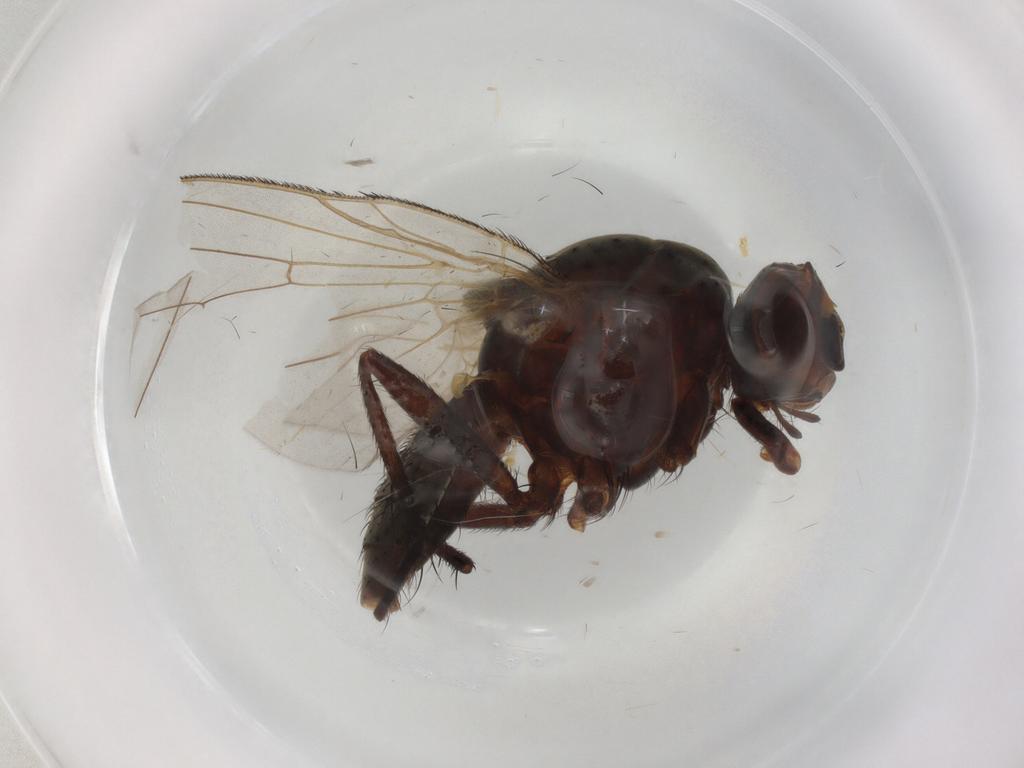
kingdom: Animalia
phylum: Arthropoda
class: Insecta
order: Diptera
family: Anthomyiidae
